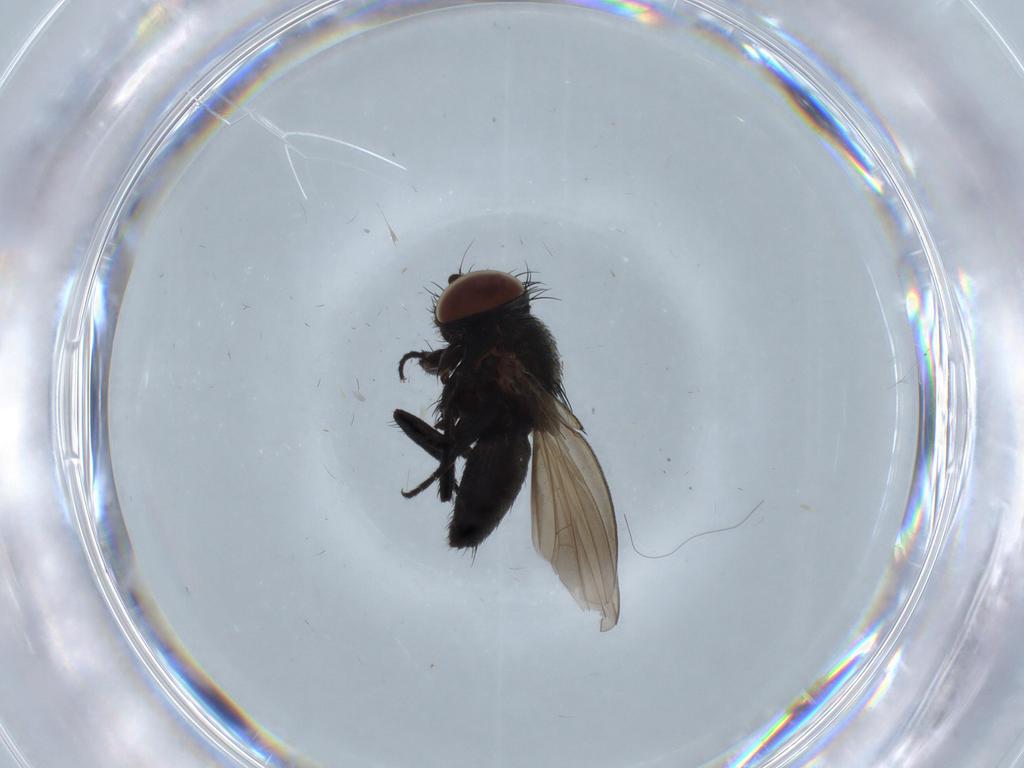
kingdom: Animalia
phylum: Arthropoda
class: Insecta
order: Diptera
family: Milichiidae
